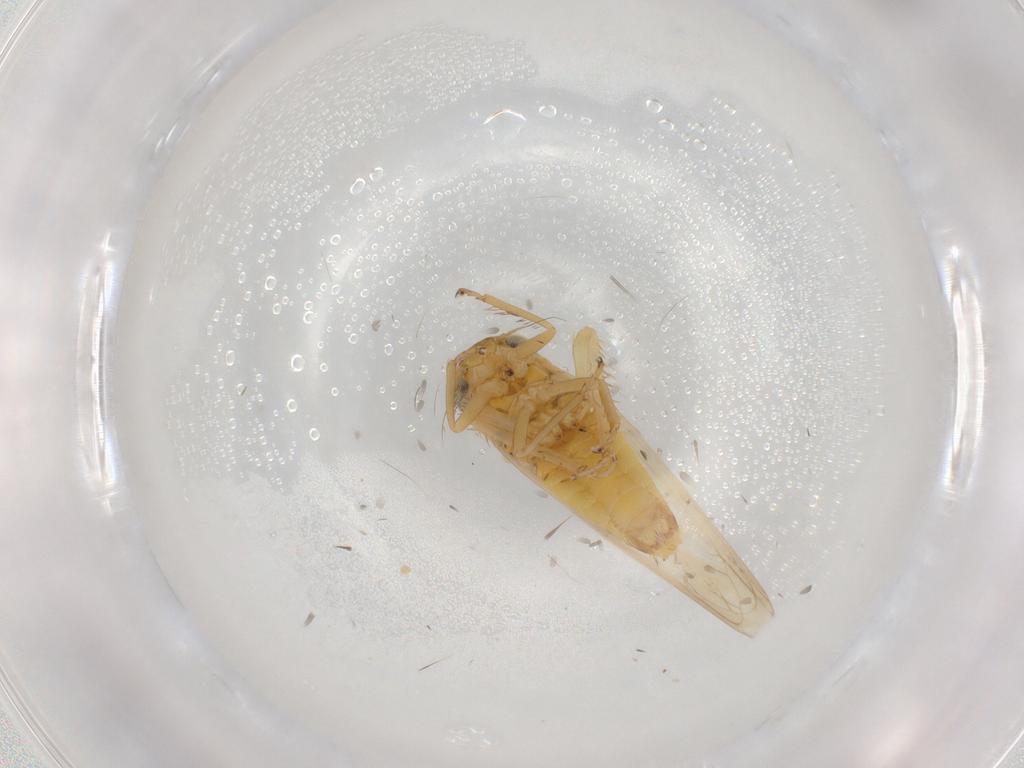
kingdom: Animalia
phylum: Arthropoda
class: Insecta
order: Hemiptera
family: Cicadellidae
